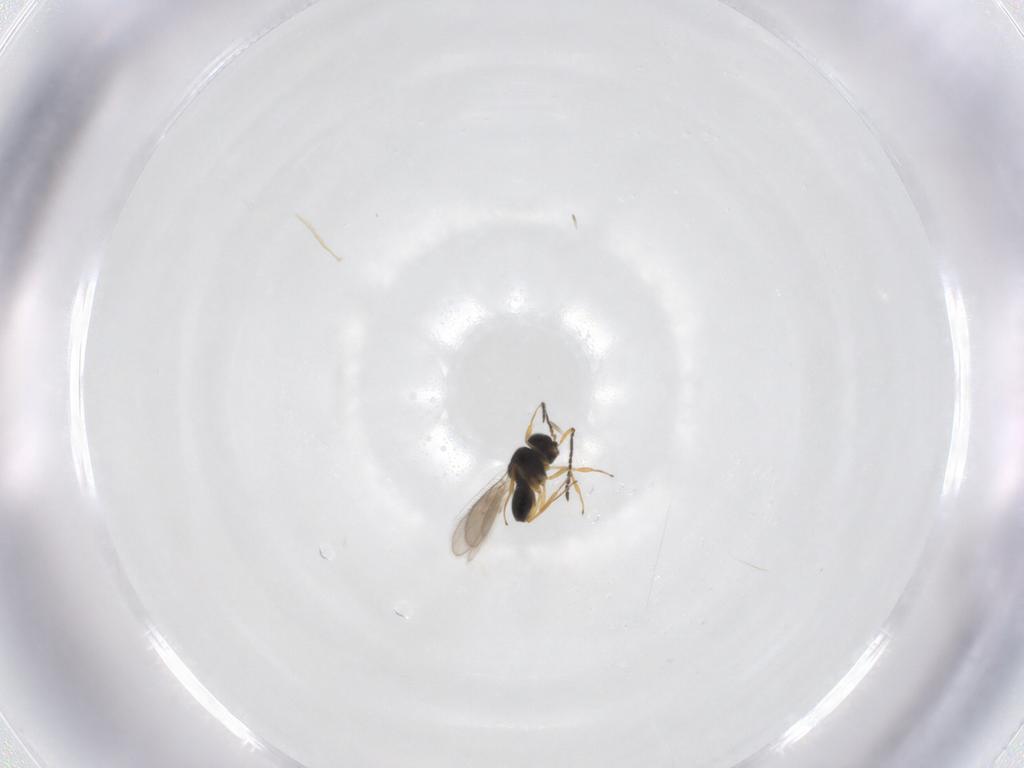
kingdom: Animalia
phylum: Arthropoda
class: Insecta
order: Hymenoptera
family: Scelionidae
